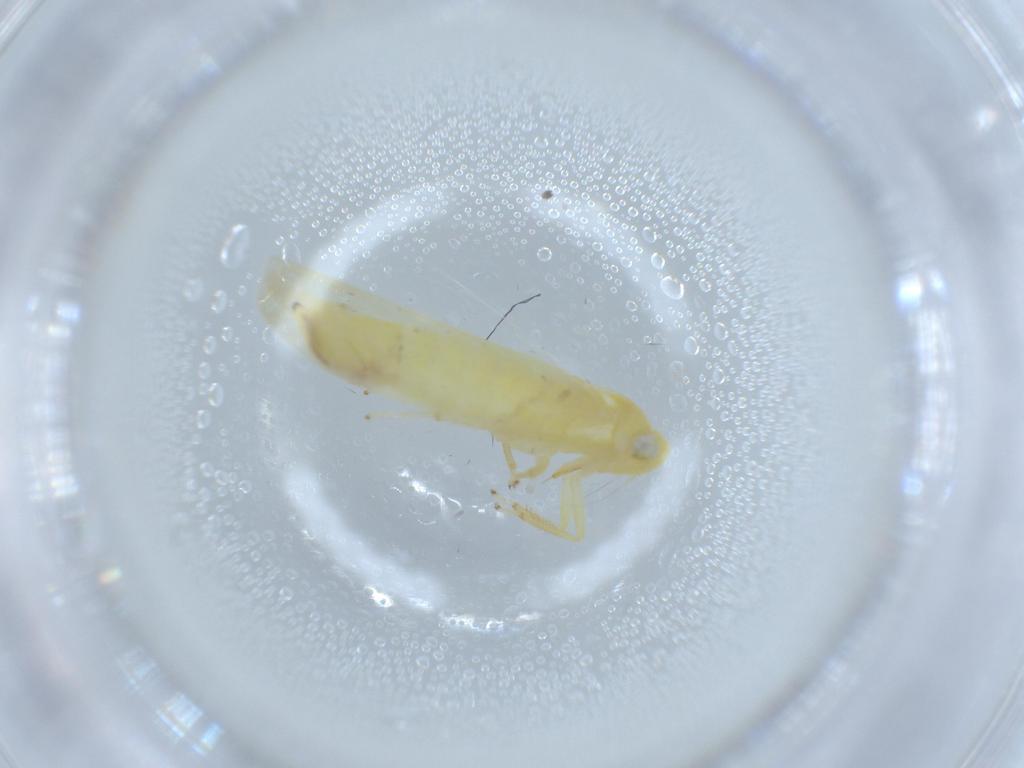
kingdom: Animalia
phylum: Arthropoda
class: Insecta
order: Hemiptera
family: Cicadellidae
